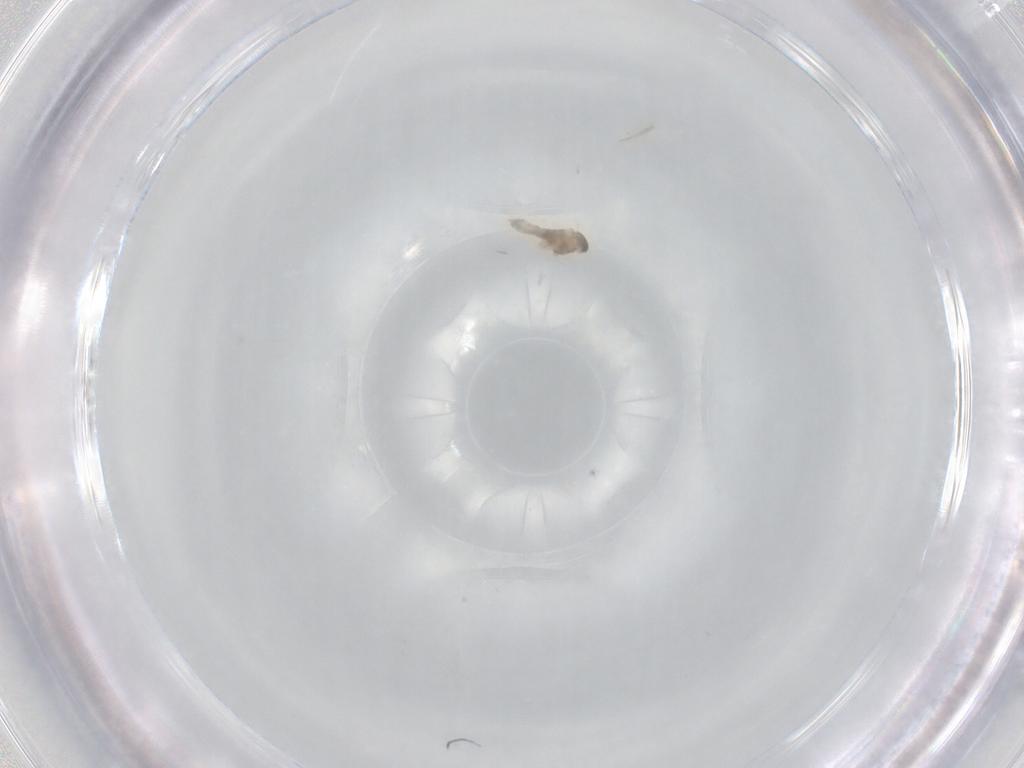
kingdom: Animalia
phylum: Arthropoda
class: Insecta
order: Diptera
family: Cecidomyiidae
